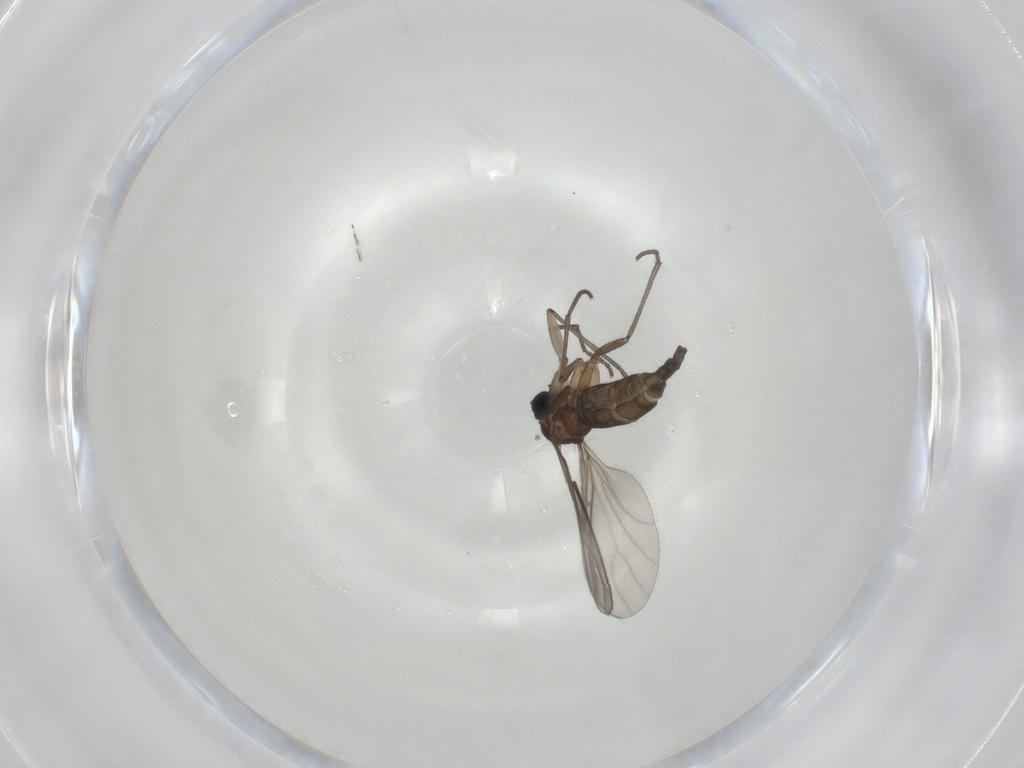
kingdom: Animalia
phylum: Arthropoda
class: Insecta
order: Diptera
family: Sciaridae
